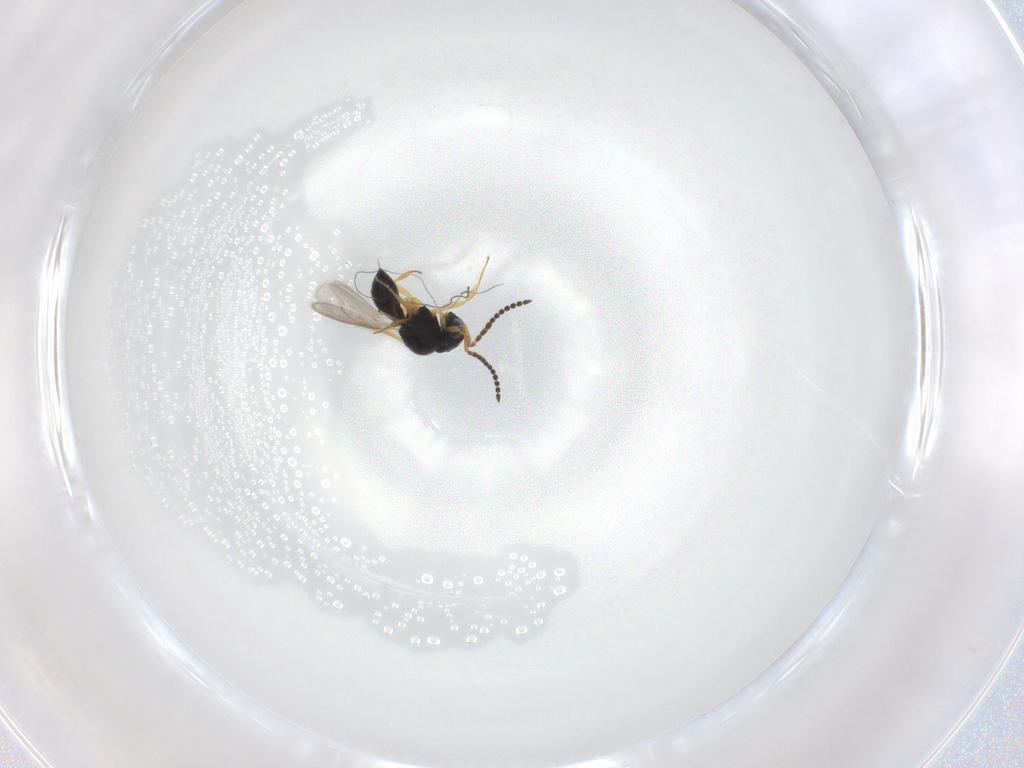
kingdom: Animalia
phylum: Arthropoda
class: Insecta
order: Hymenoptera
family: Scelionidae
